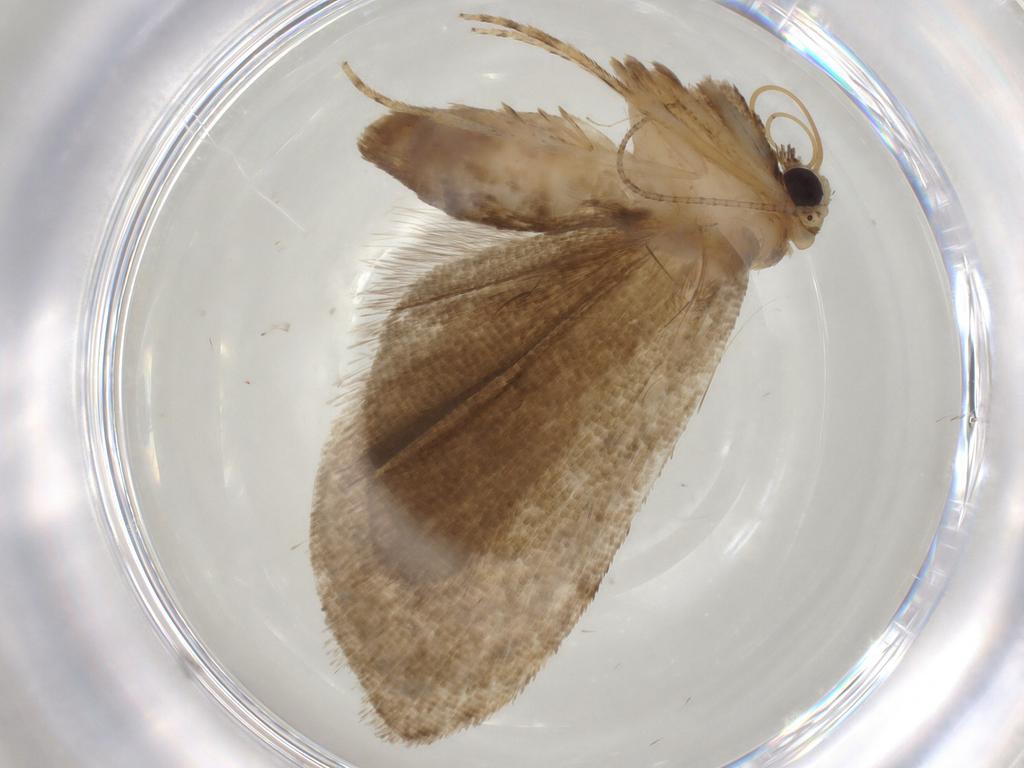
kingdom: Animalia
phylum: Arthropoda
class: Insecta
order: Lepidoptera
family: Erebidae
